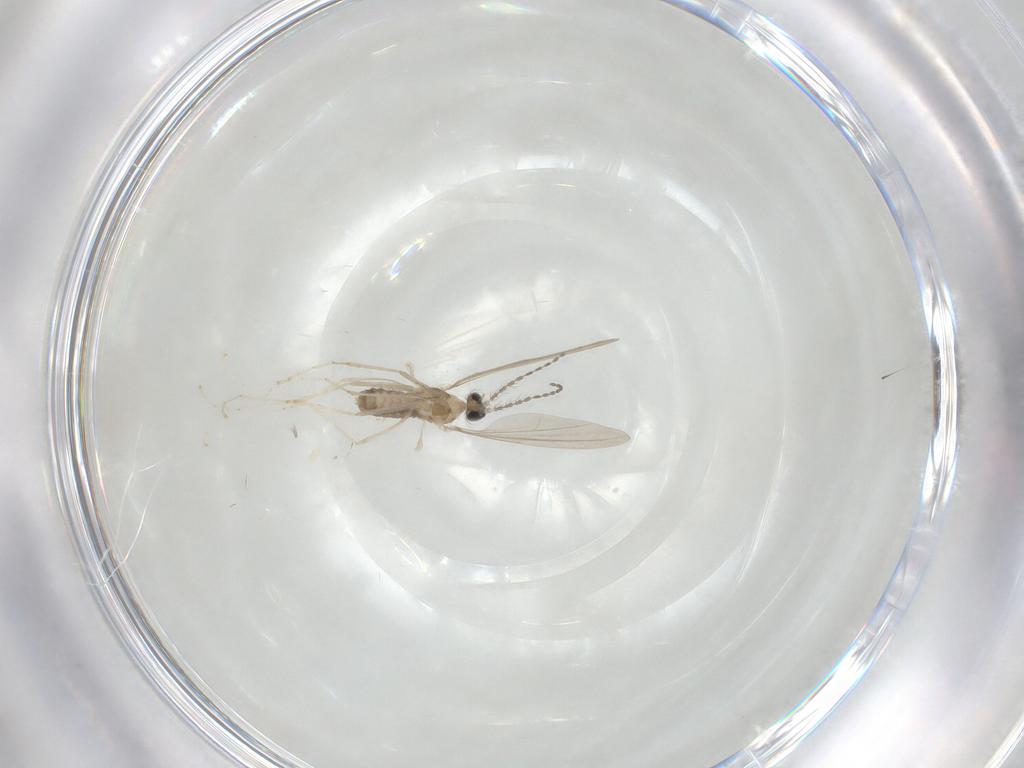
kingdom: Animalia
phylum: Arthropoda
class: Insecta
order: Diptera
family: Cecidomyiidae
